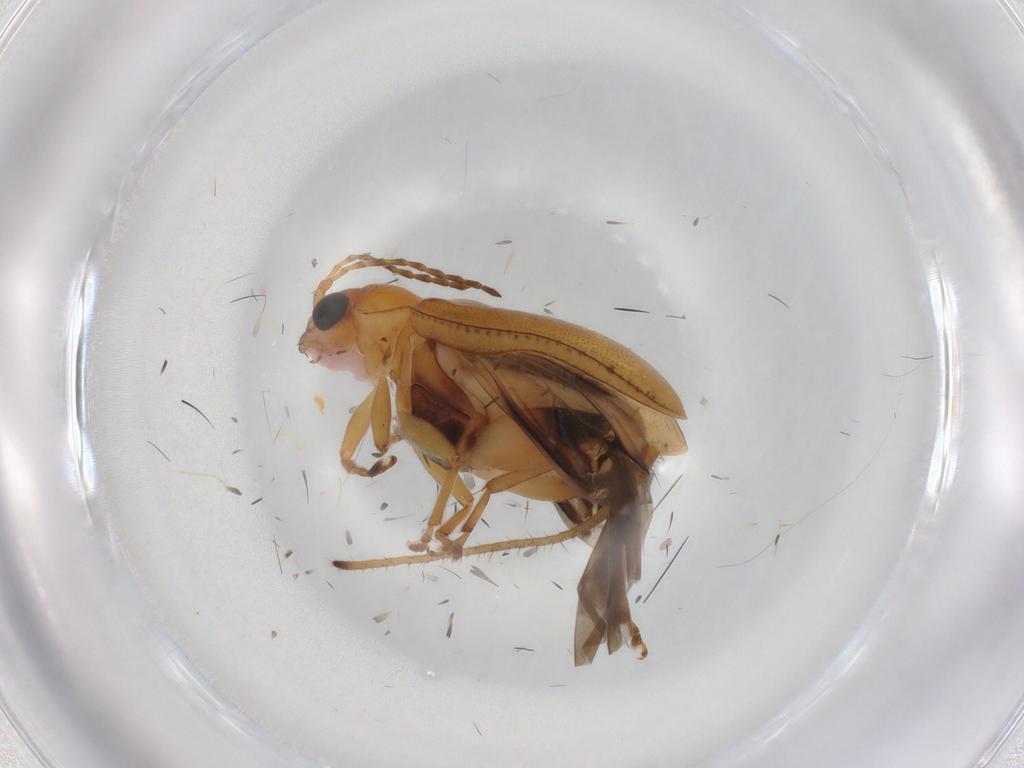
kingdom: Animalia
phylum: Arthropoda
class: Insecta
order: Coleoptera
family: Chrysomelidae
